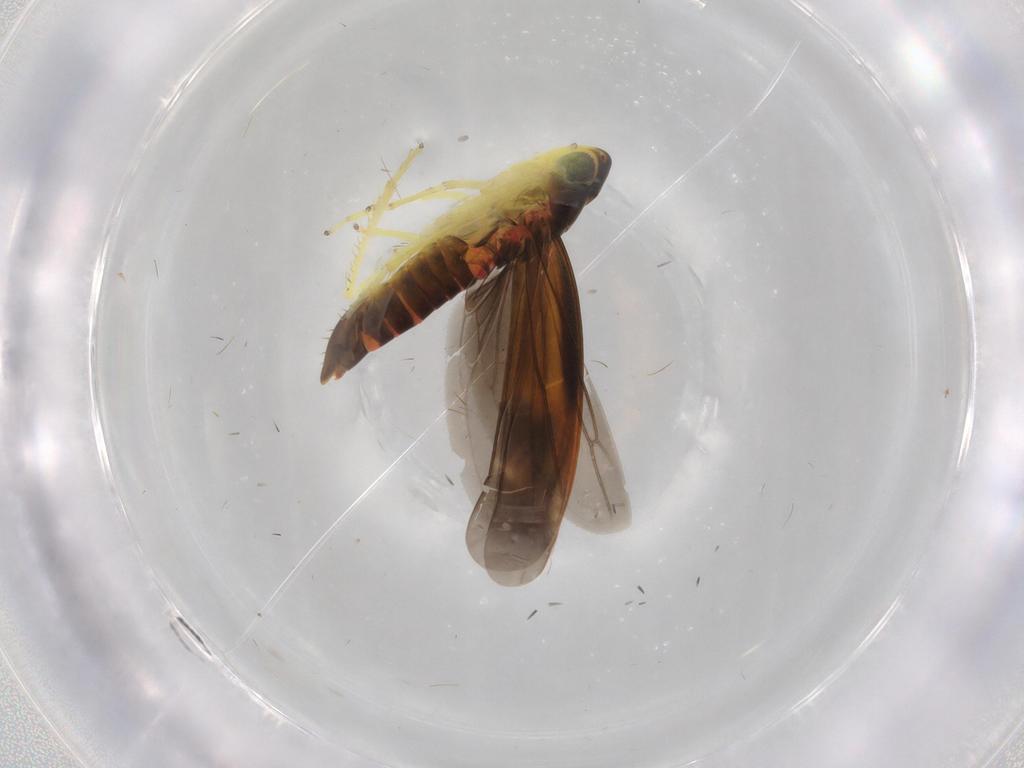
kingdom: Animalia
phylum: Arthropoda
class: Insecta
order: Hemiptera
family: Cicadellidae
